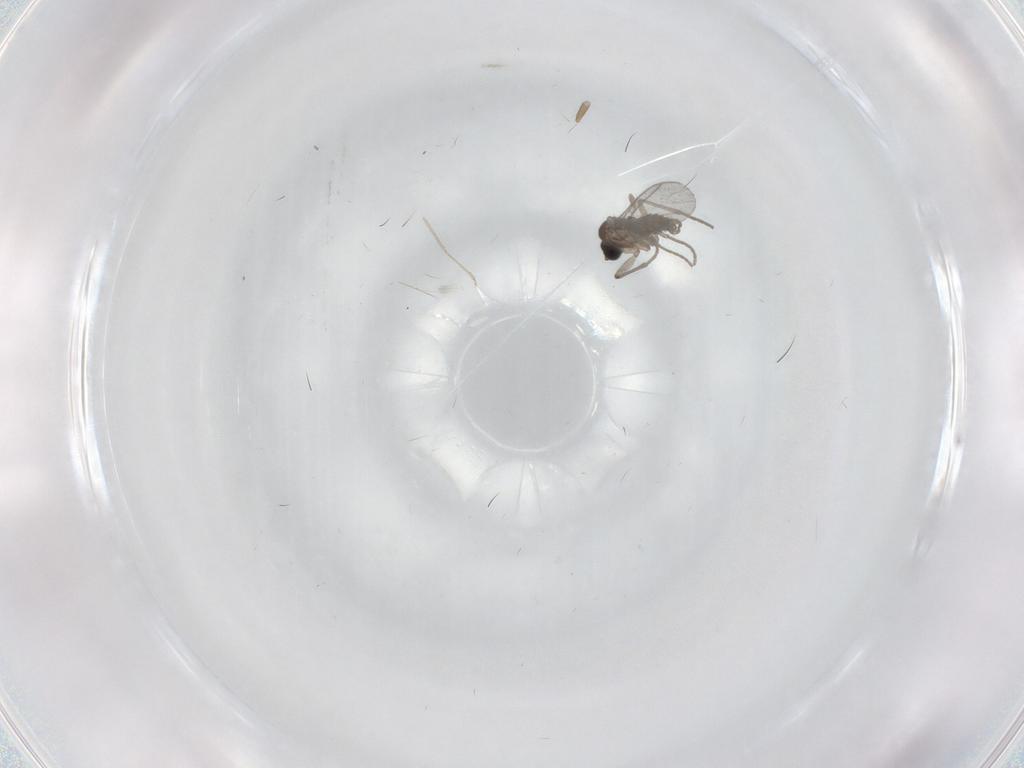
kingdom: Animalia
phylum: Arthropoda
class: Insecta
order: Diptera
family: Cecidomyiidae
